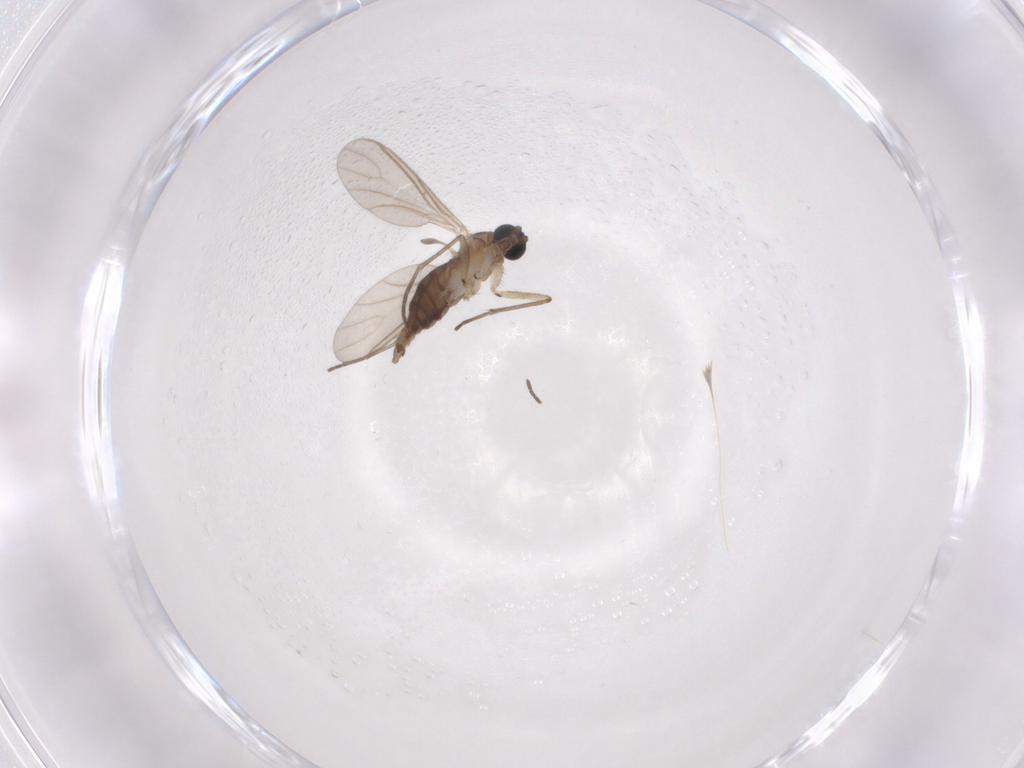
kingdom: Animalia
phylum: Arthropoda
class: Insecta
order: Diptera
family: Sciaridae
